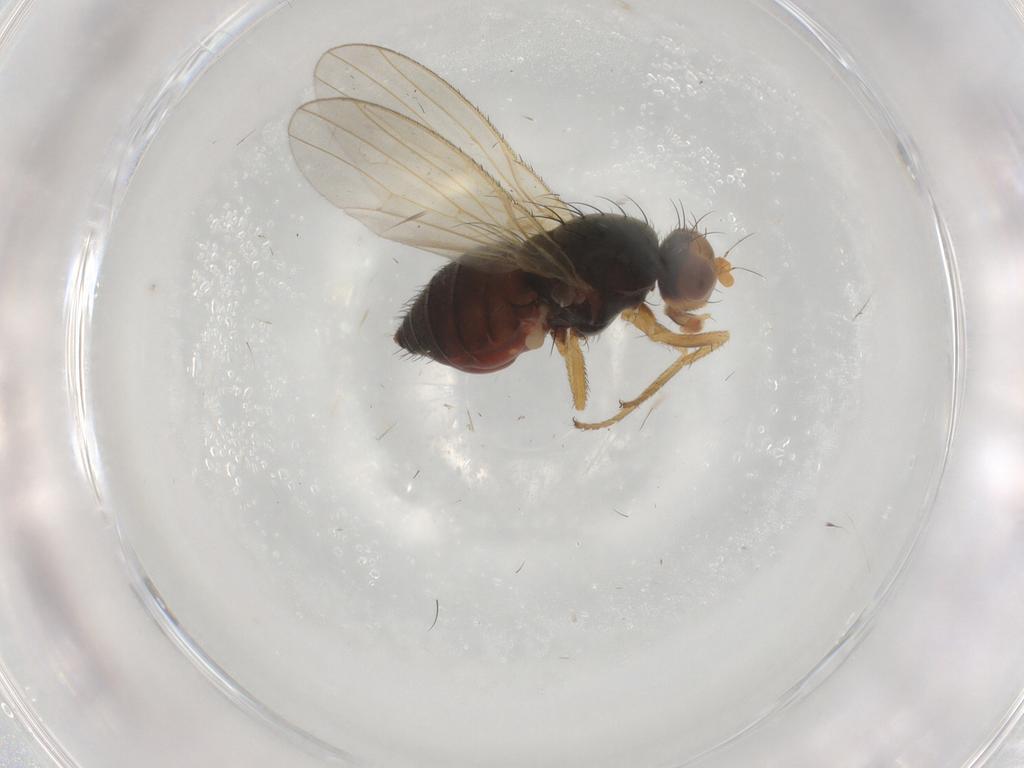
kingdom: Animalia
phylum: Arthropoda
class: Insecta
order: Diptera
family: Heleomyzidae
